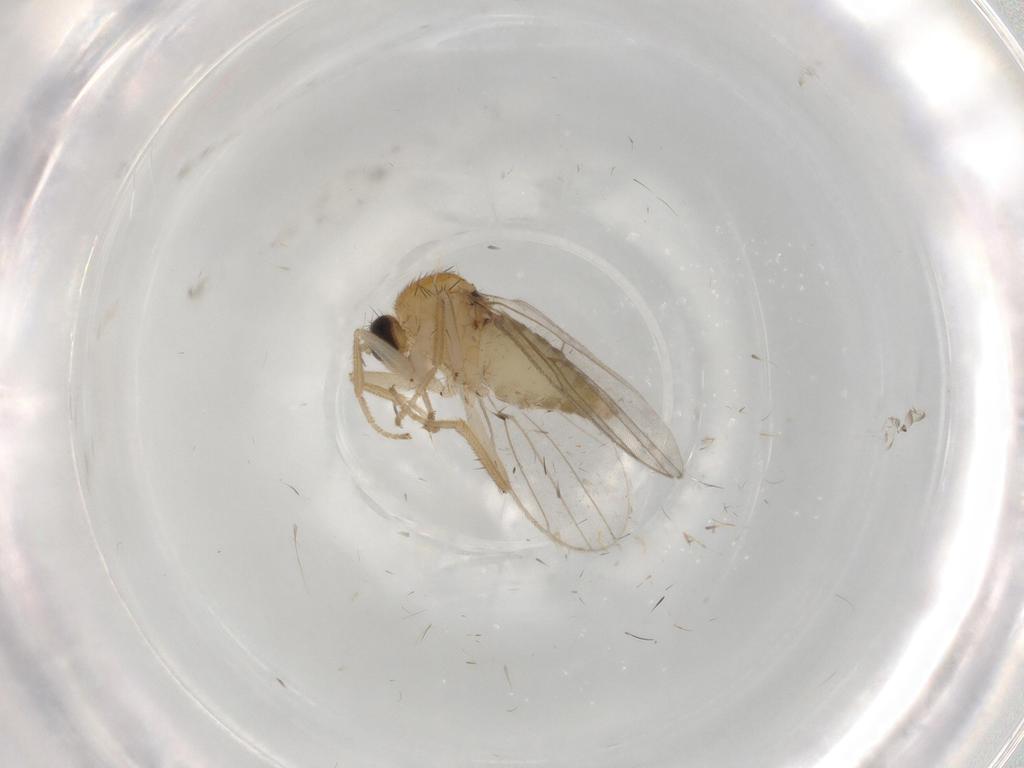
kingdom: Animalia
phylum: Arthropoda
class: Insecta
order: Diptera
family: Hybotidae
